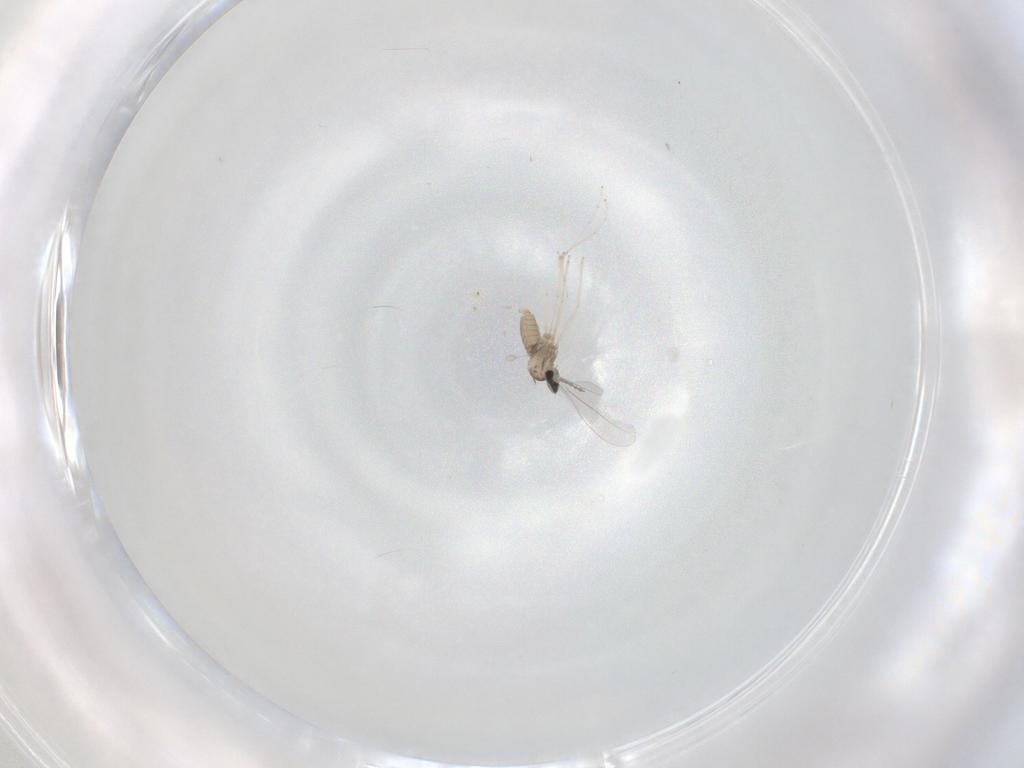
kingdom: Animalia
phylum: Arthropoda
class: Insecta
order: Diptera
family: Cecidomyiidae
